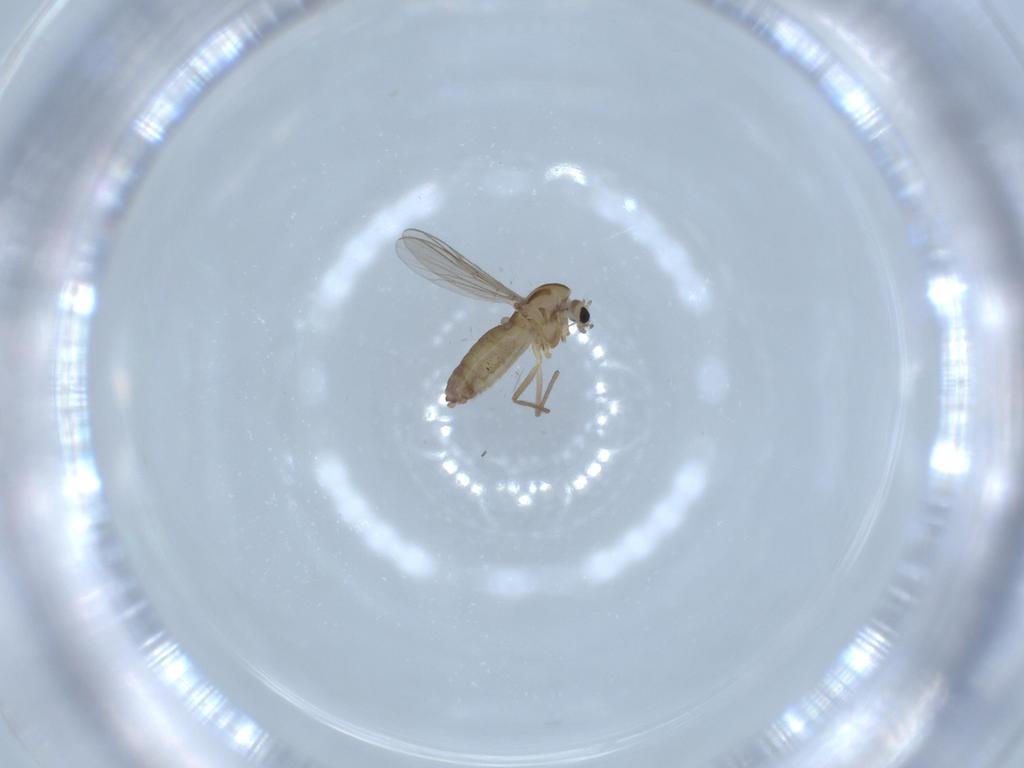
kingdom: Animalia
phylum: Arthropoda
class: Insecta
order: Diptera
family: Chironomidae
